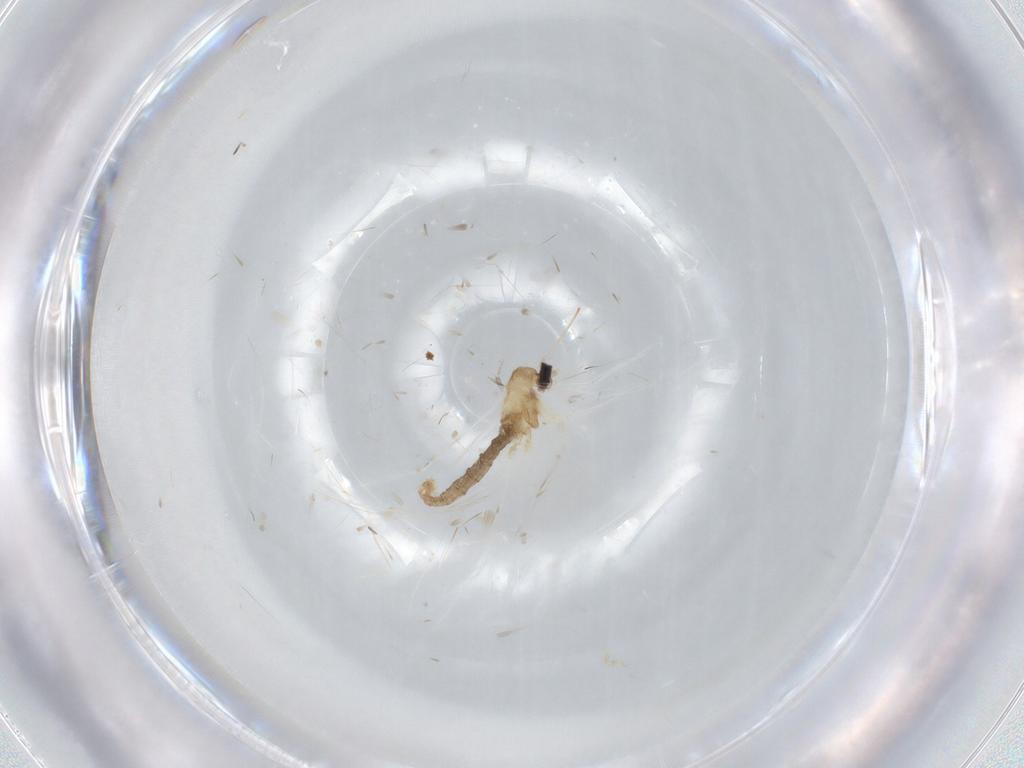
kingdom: Animalia
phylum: Arthropoda
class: Insecta
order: Diptera
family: Cecidomyiidae
